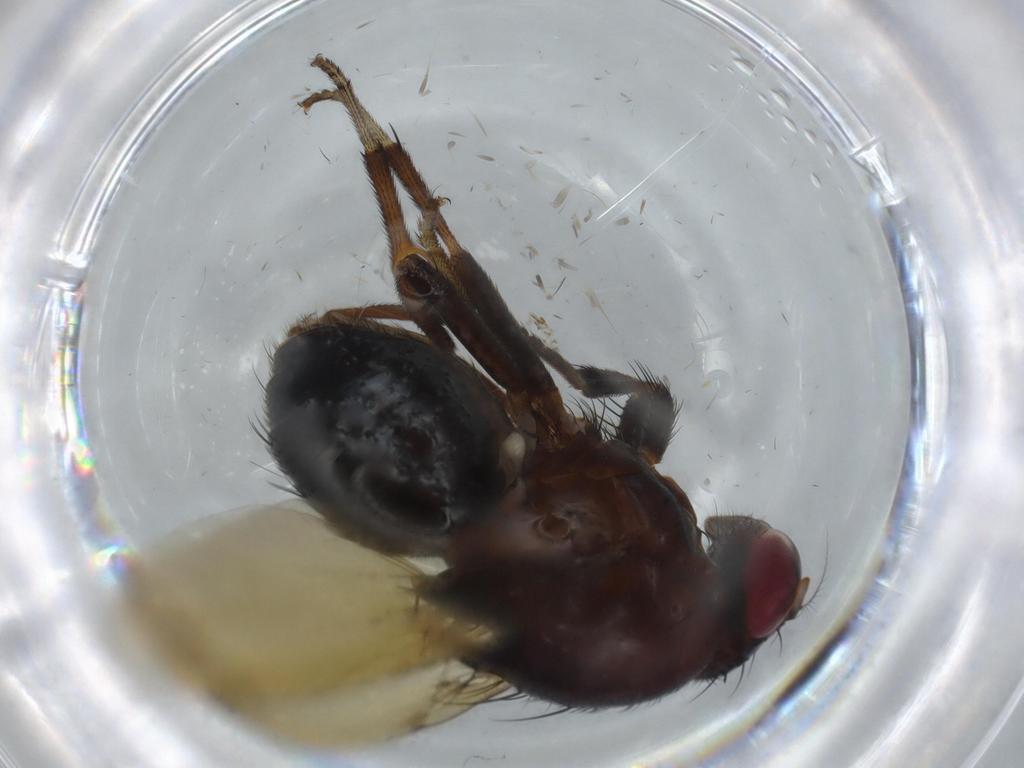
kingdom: Animalia
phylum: Arthropoda
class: Insecta
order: Diptera
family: Lauxaniidae
